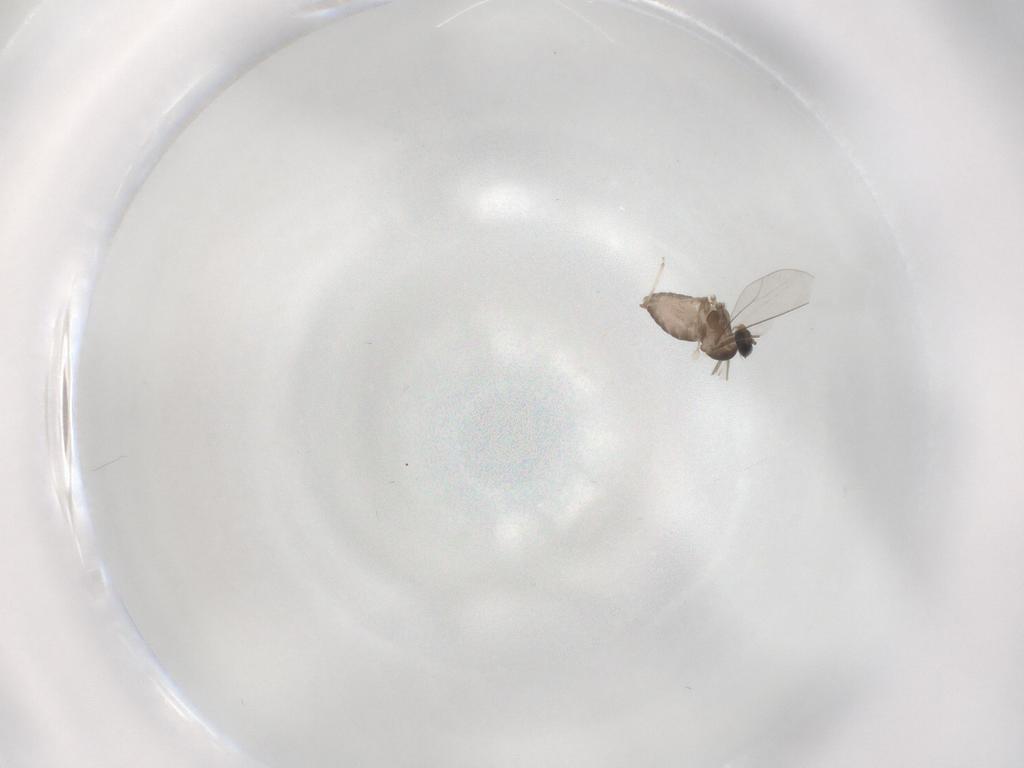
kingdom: Animalia
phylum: Arthropoda
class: Insecta
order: Diptera
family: Cecidomyiidae
